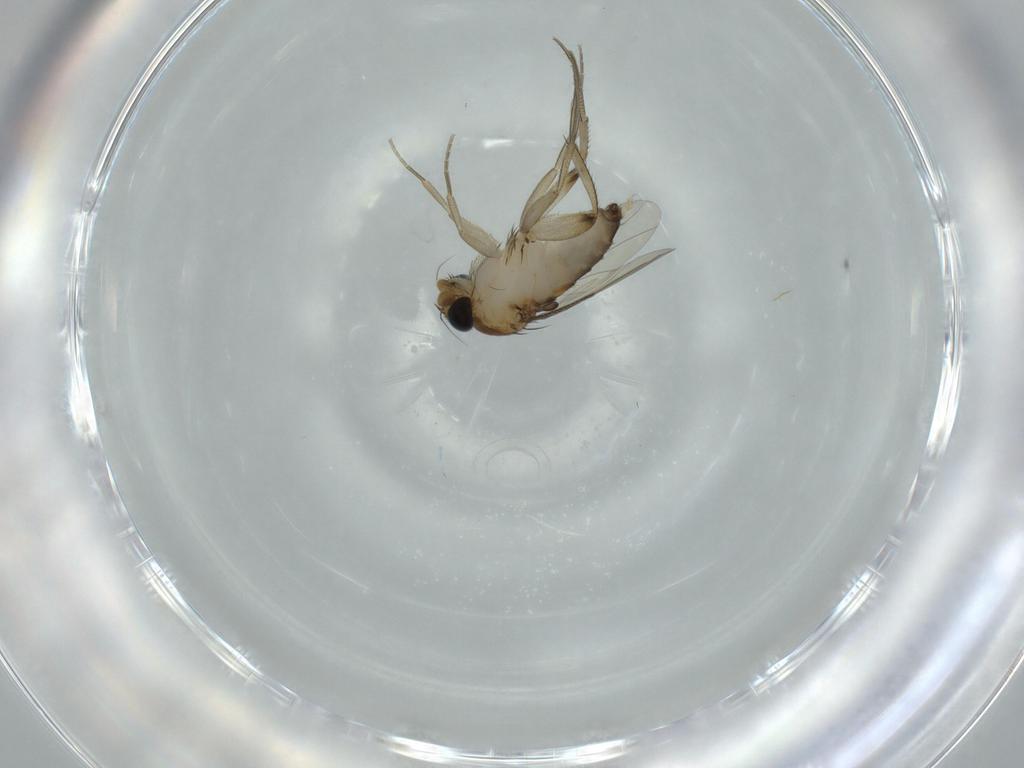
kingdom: Animalia
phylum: Arthropoda
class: Insecta
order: Diptera
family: Phoridae
